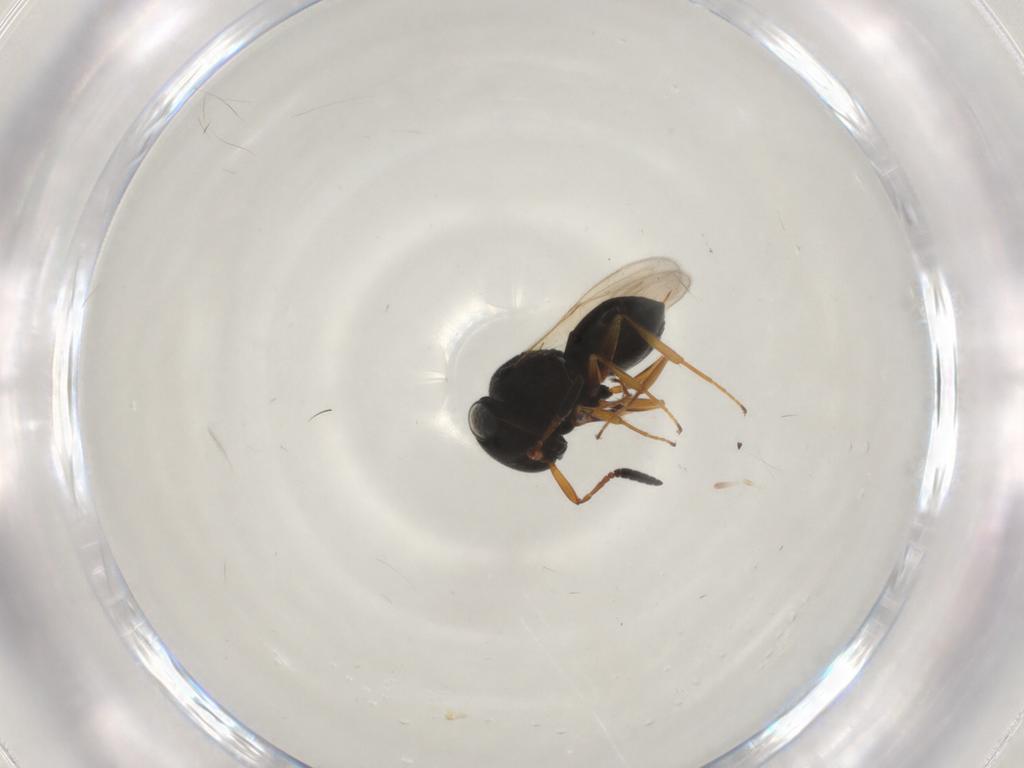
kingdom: Animalia
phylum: Arthropoda
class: Insecta
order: Hymenoptera
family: Scelionidae
